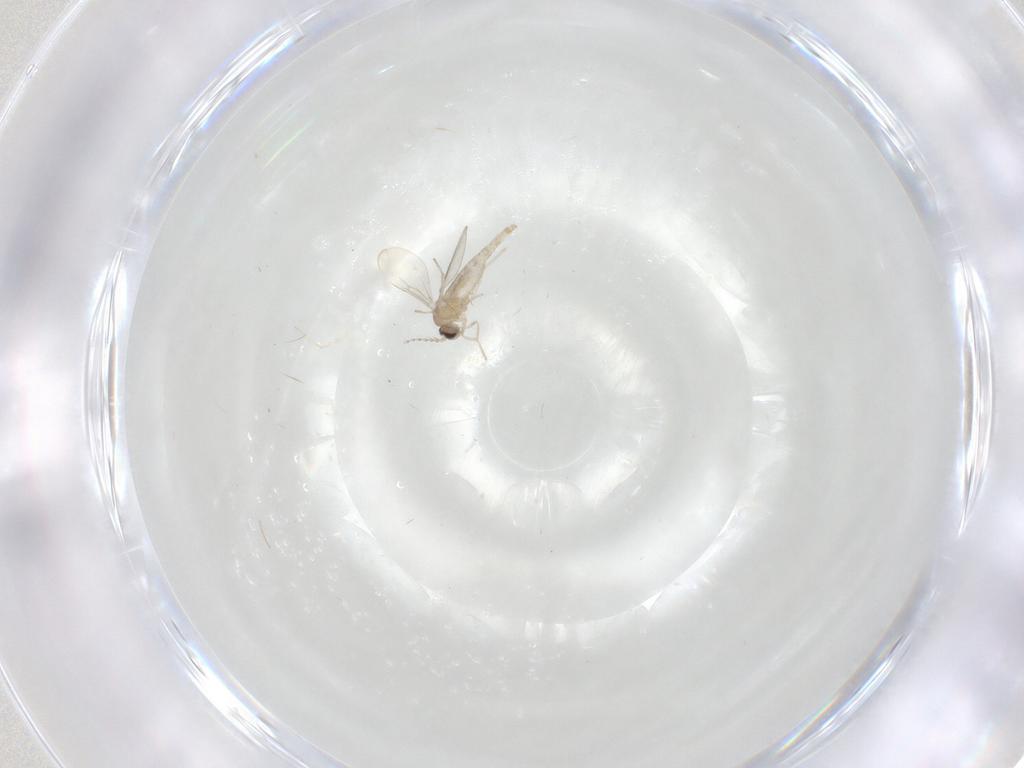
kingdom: Animalia
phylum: Arthropoda
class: Insecta
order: Diptera
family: Cecidomyiidae
